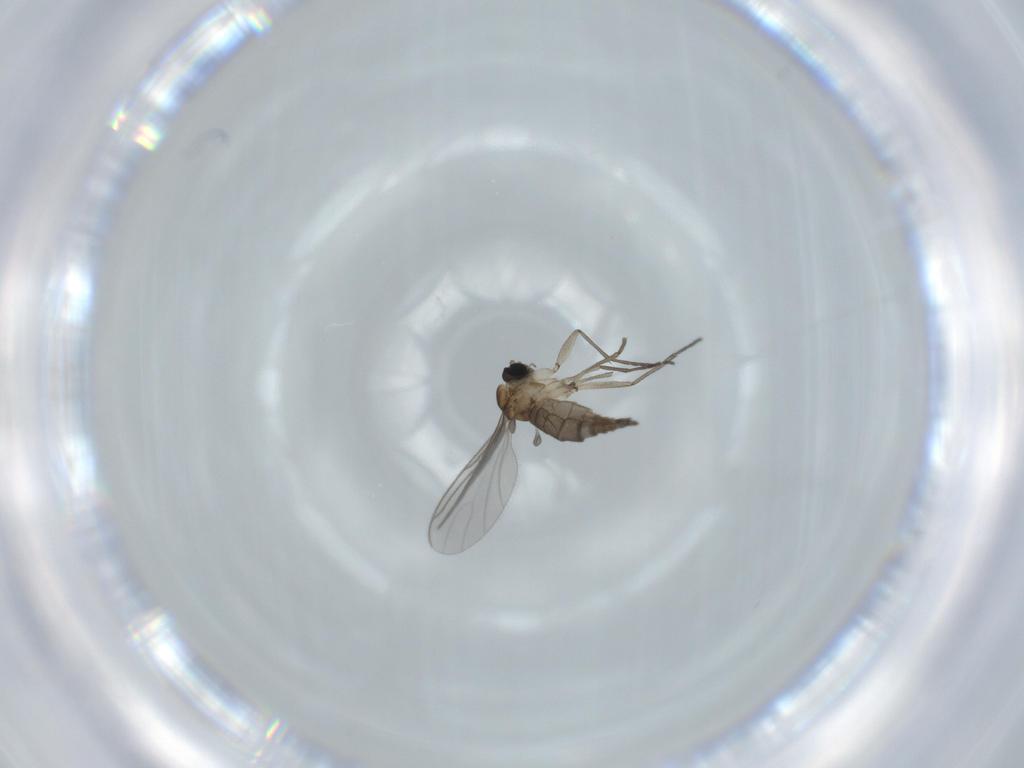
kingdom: Animalia
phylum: Arthropoda
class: Insecta
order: Diptera
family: Sciaridae
